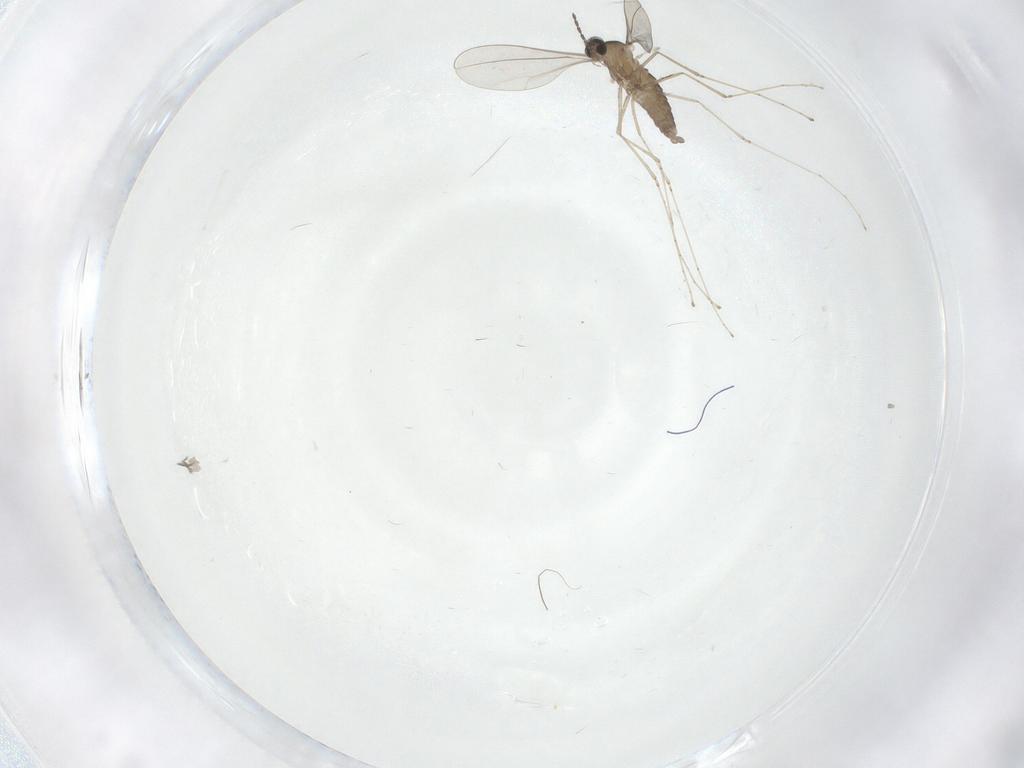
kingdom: Animalia
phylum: Arthropoda
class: Insecta
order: Diptera
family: Cecidomyiidae
